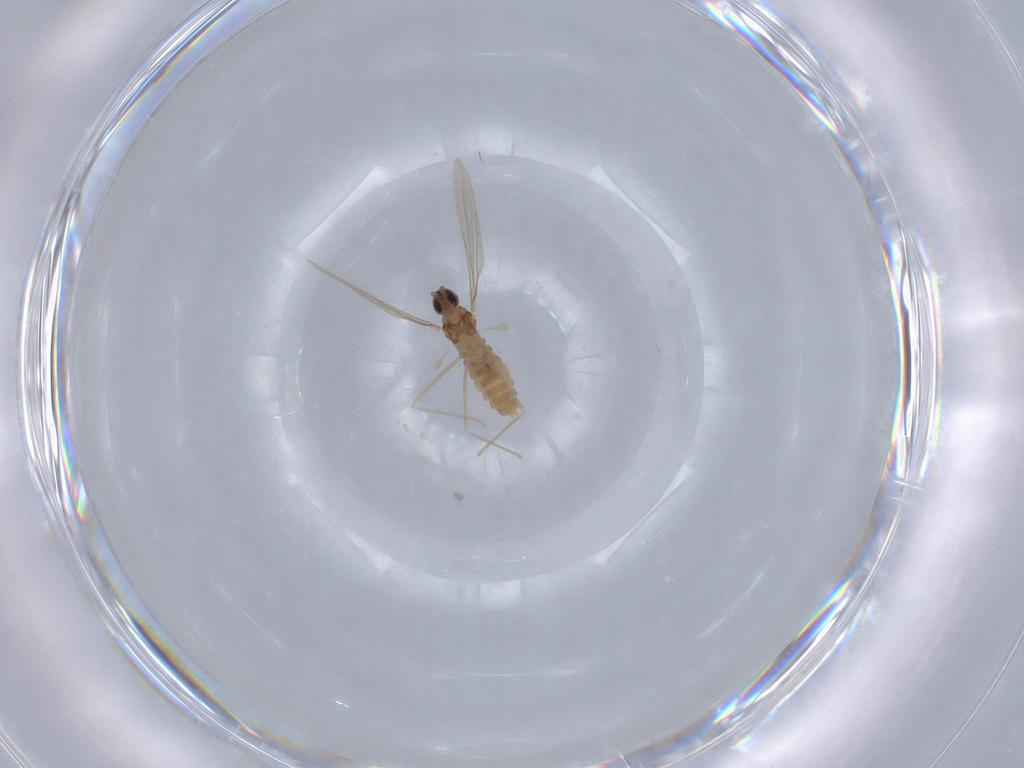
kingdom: Animalia
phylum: Arthropoda
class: Insecta
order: Diptera
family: Cecidomyiidae
